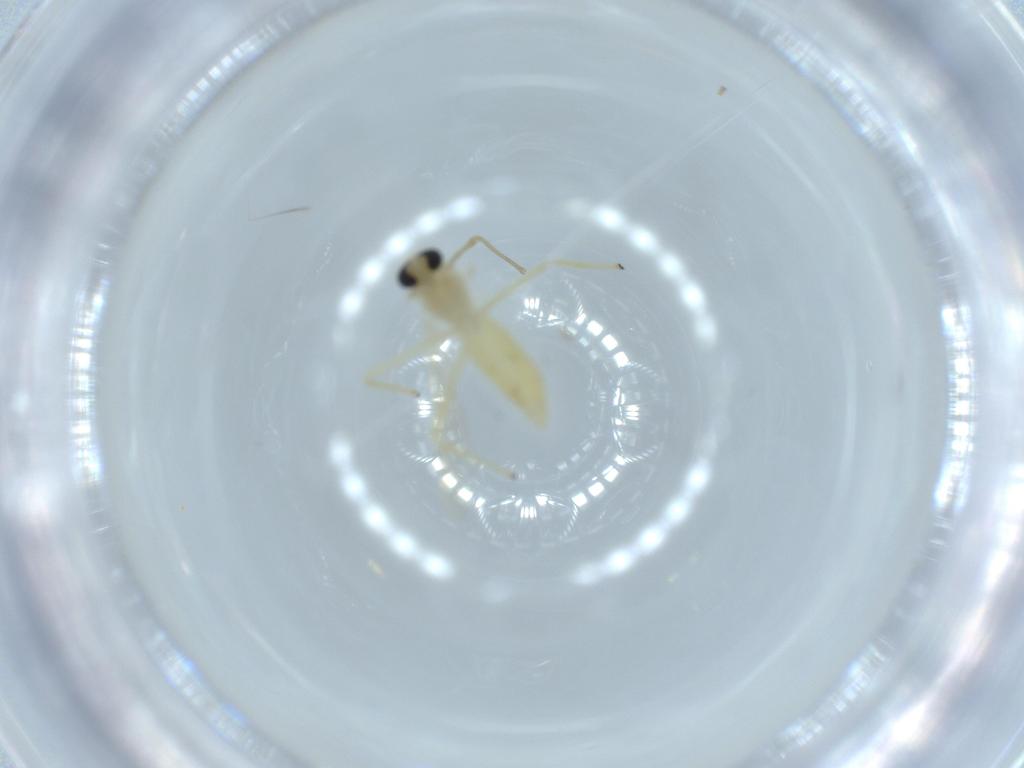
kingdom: Animalia
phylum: Arthropoda
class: Insecta
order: Diptera
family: Chironomidae
